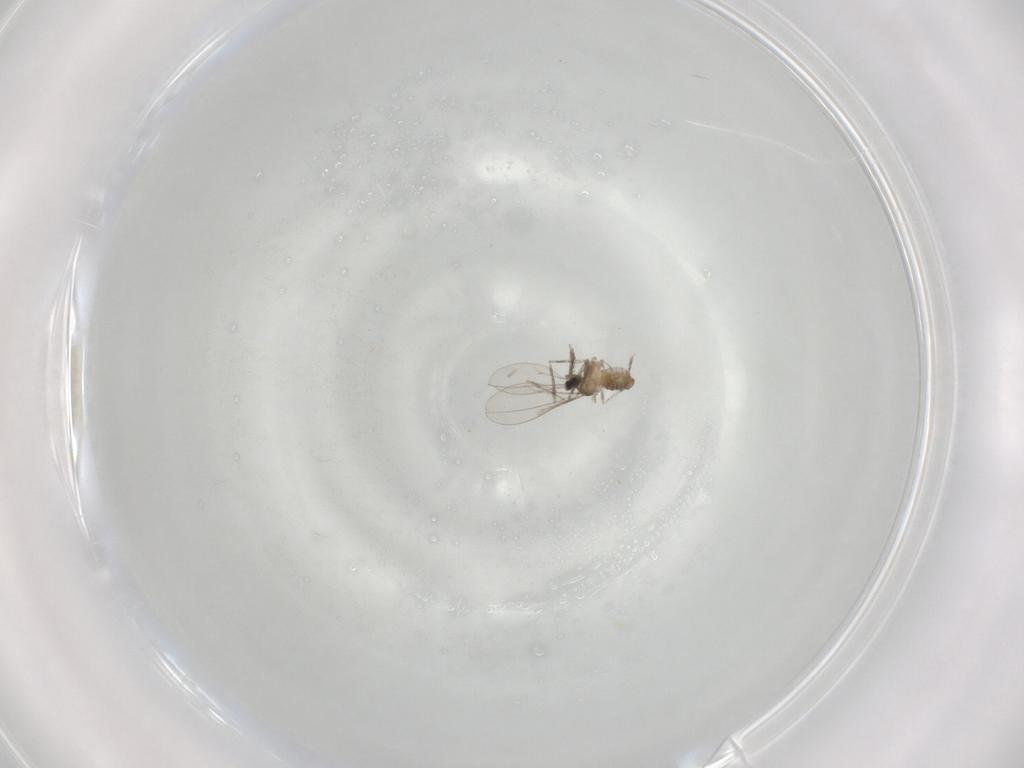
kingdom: Animalia
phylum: Arthropoda
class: Insecta
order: Diptera
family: Cecidomyiidae
